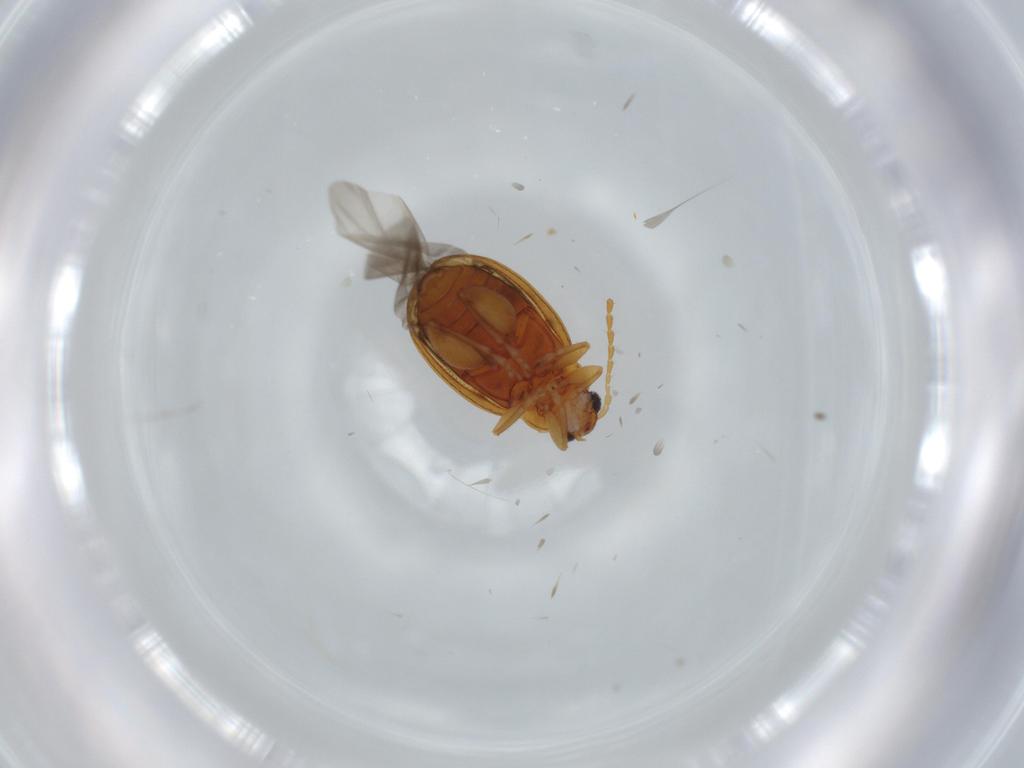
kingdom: Animalia
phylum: Arthropoda
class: Insecta
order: Coleoptera
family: Chrysomelidae
